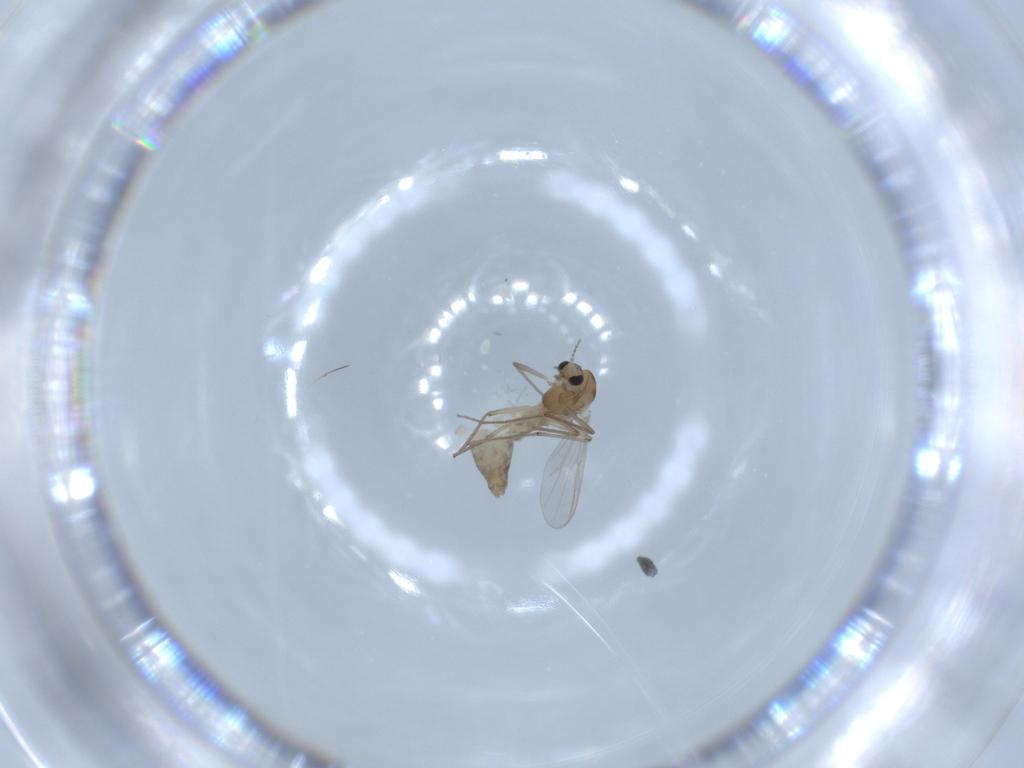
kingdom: Animalia
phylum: Arthropoda
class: Insecta
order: Diptera
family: Chironomidae
